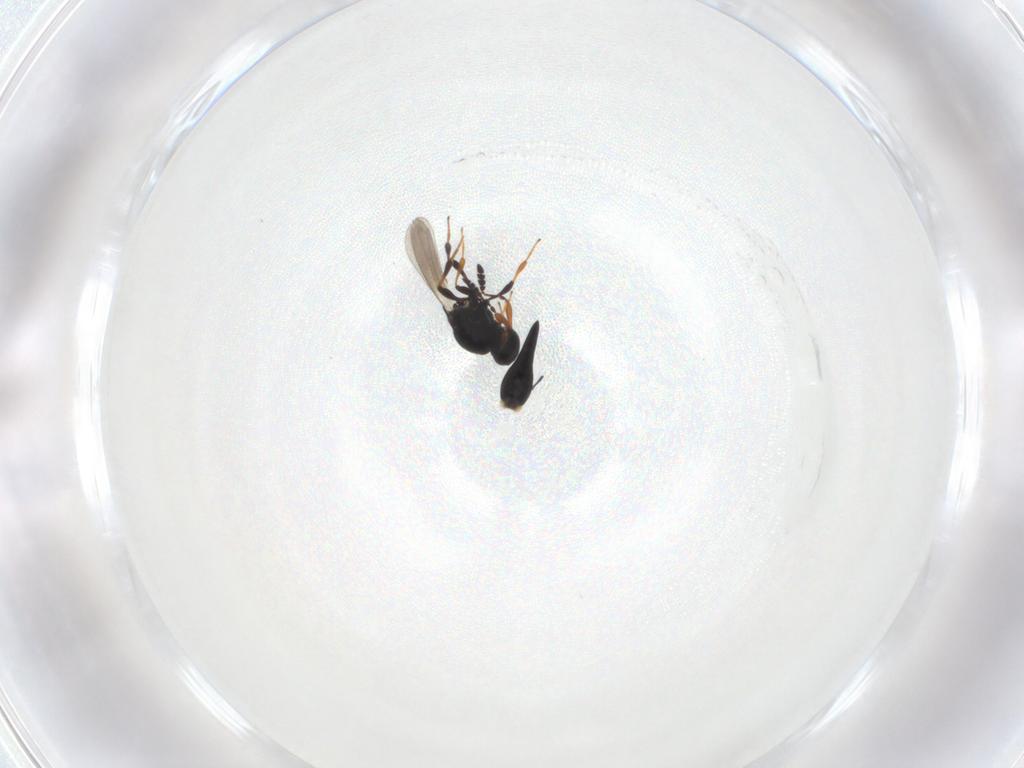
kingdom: Animalia
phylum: Arthropoda
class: Insecta
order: Hymenoptera
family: Platygastridae
